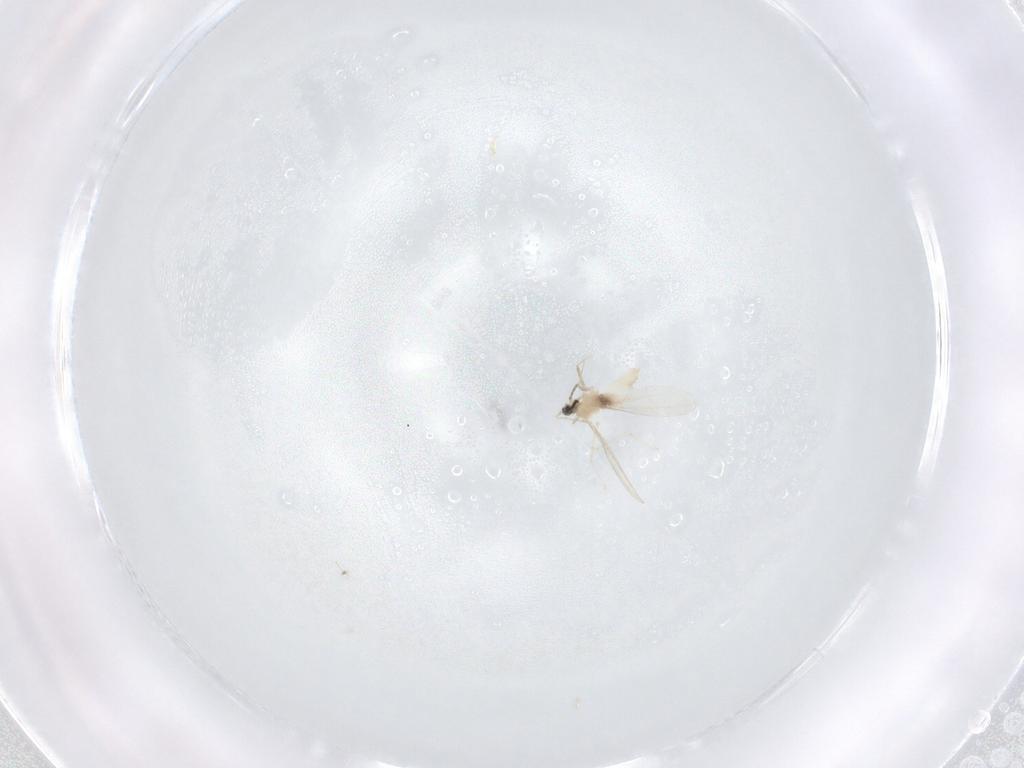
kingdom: Animalia
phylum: Arthropoda
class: Insecta
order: Diptera
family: Cecidomyiidae
